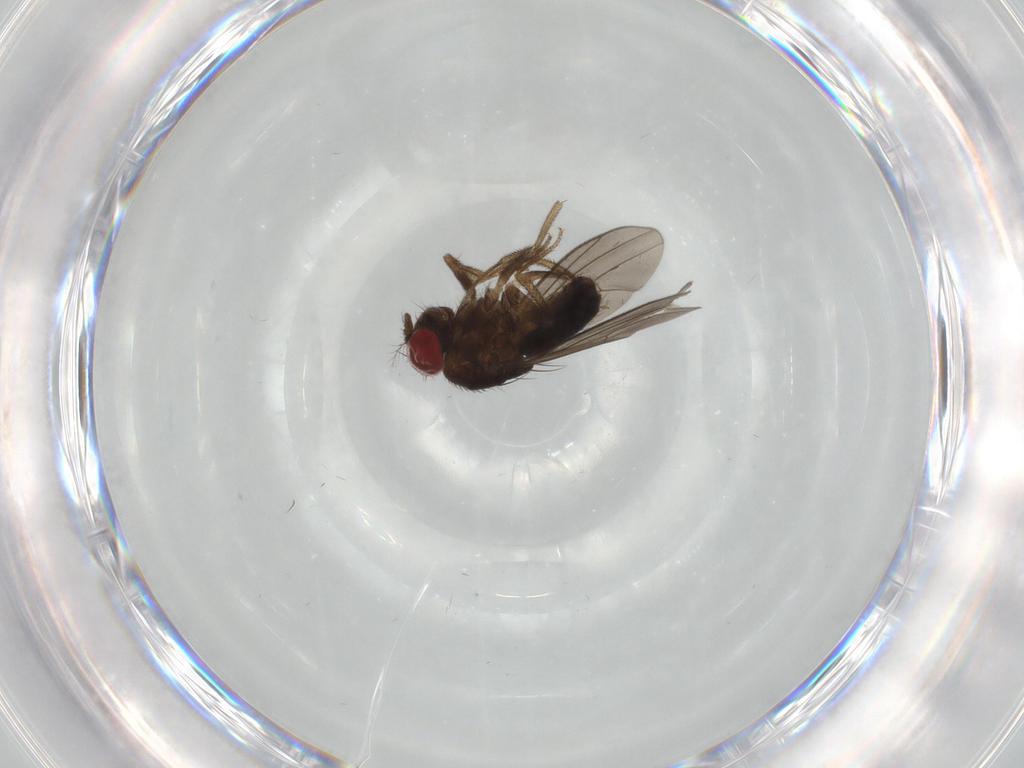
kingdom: Animalia
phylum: Arthropoda
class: Insecta
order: Diptera
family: Drosophilidae
